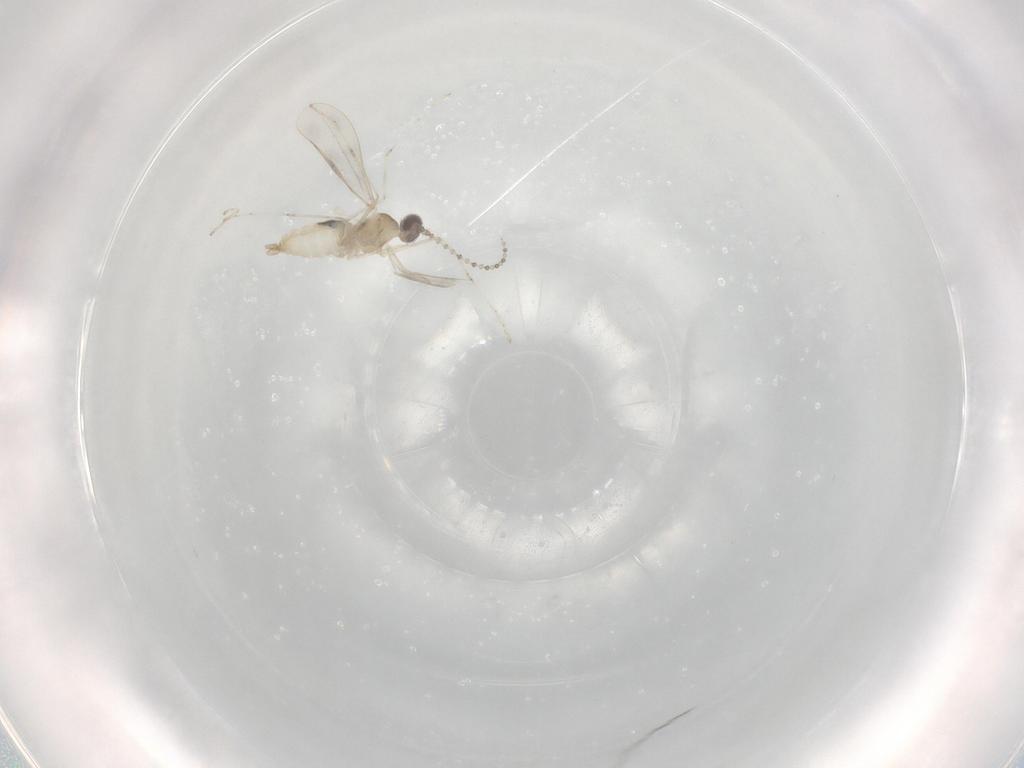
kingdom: Animalia
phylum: Arthropoda
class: Insecta
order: Diptera
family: Cecidomyiidae
